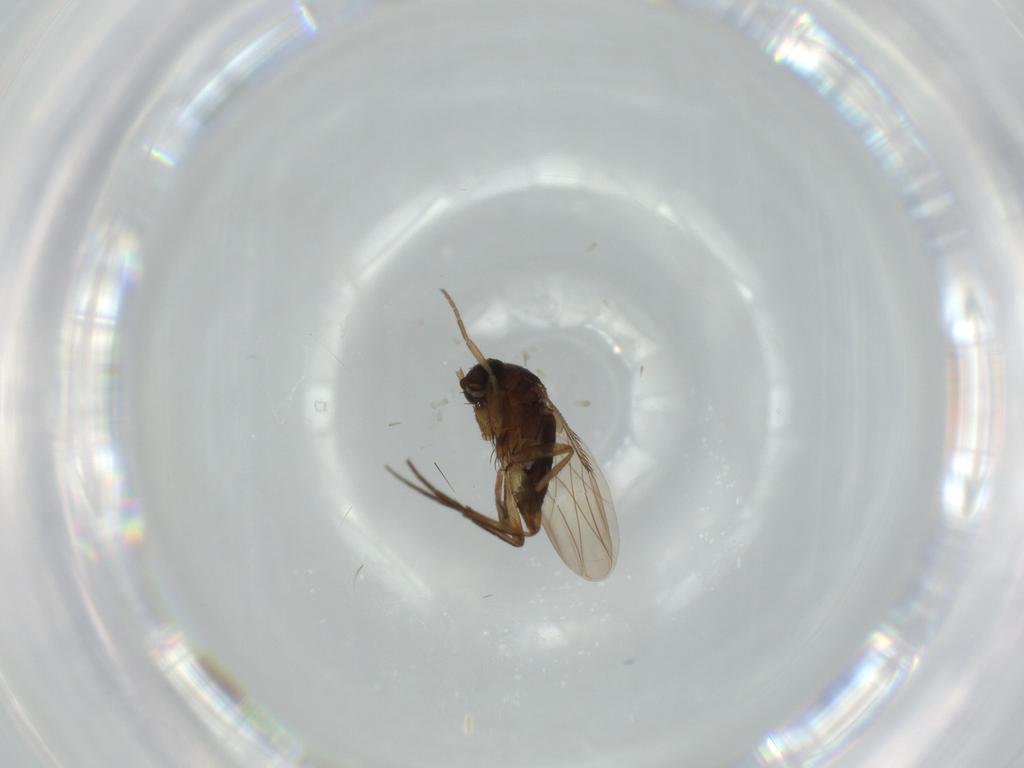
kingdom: Animalia
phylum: Arthropoda
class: Insecta
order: Diptera
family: Phoridae
